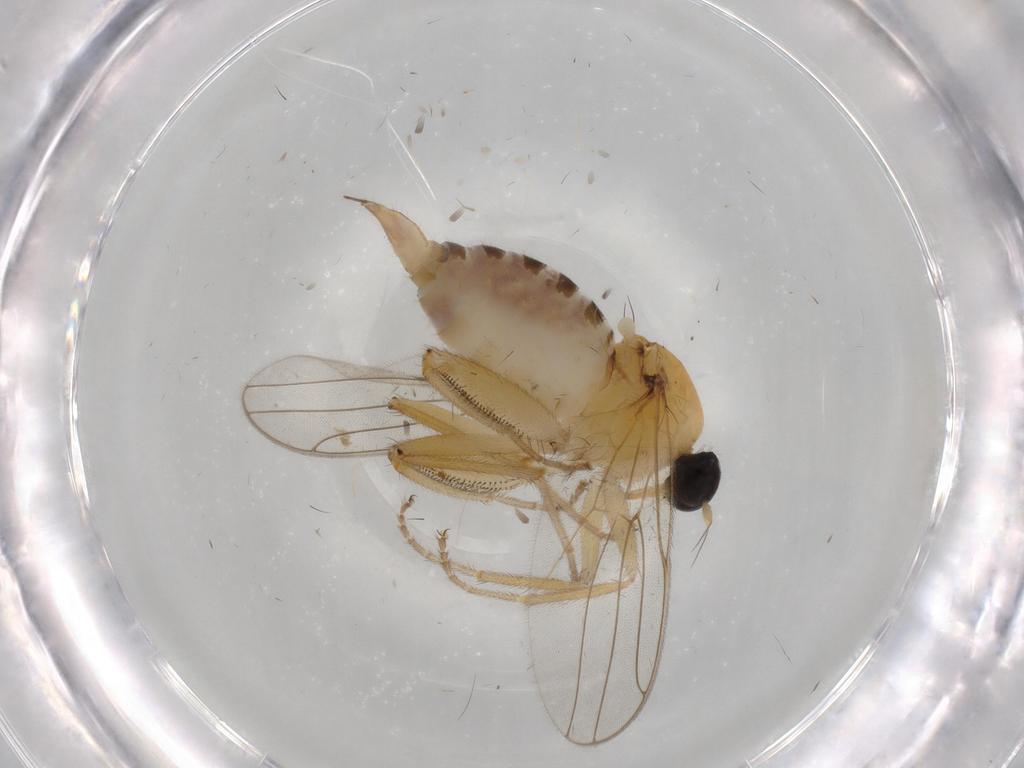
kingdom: Animalia
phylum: Arthropoda
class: Insecta
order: Diptera
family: Hybotidae
